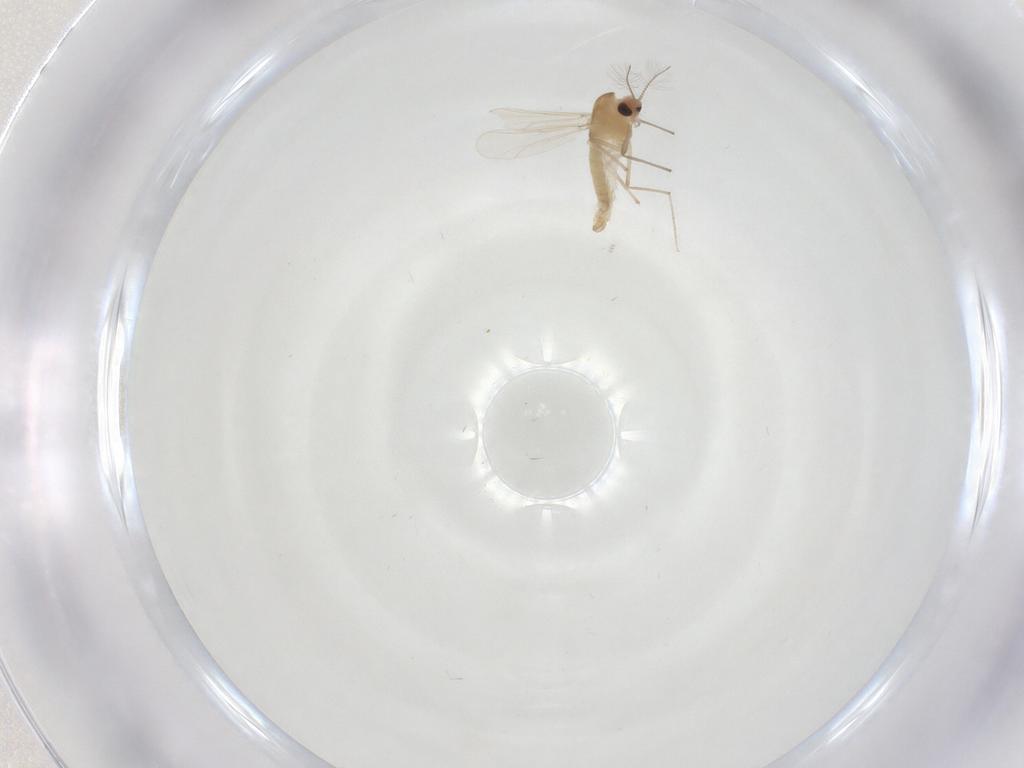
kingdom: Animalia
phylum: Arthropoda
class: Insecta
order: Diptera
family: Chironomidae
